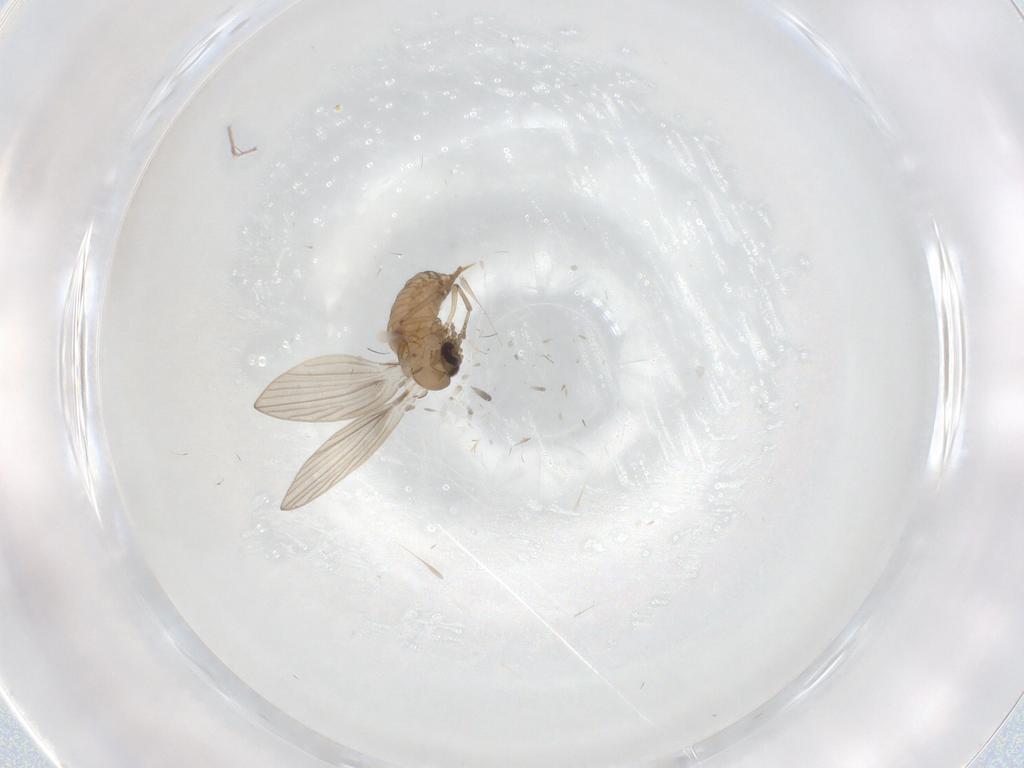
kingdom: Animalia
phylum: Arthropoda
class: Insecta
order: Diptera
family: Psychodidae
